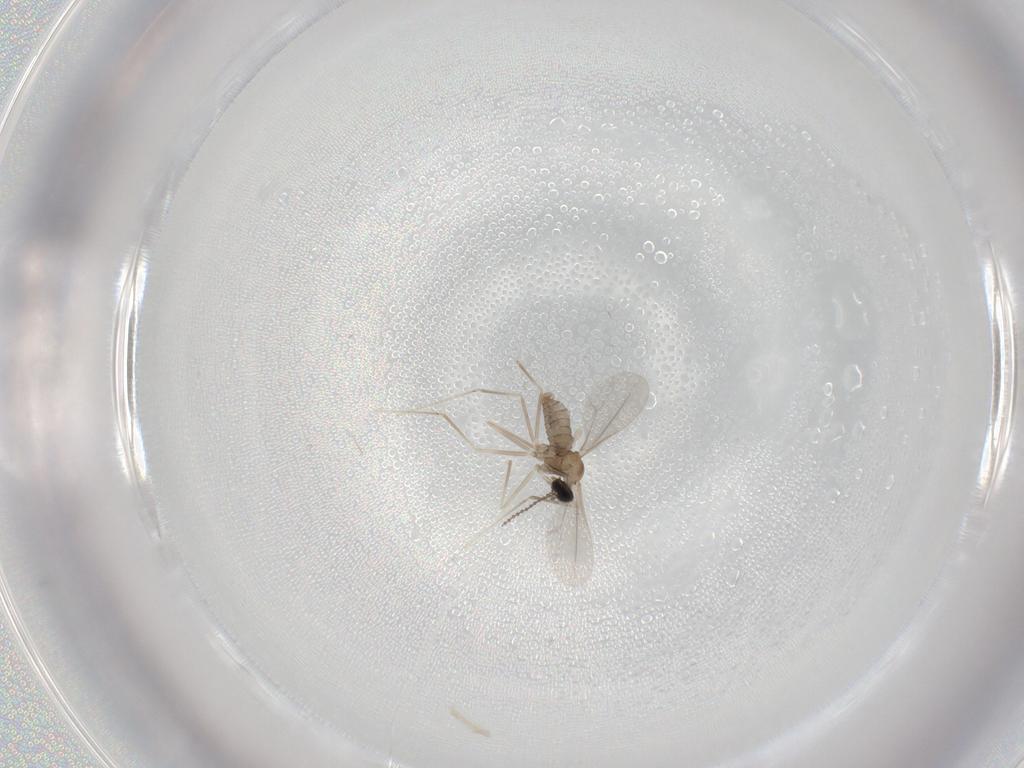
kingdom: Animalia
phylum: Arthropoda
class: Insecta
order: Diptera
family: Cecidomyiidae
